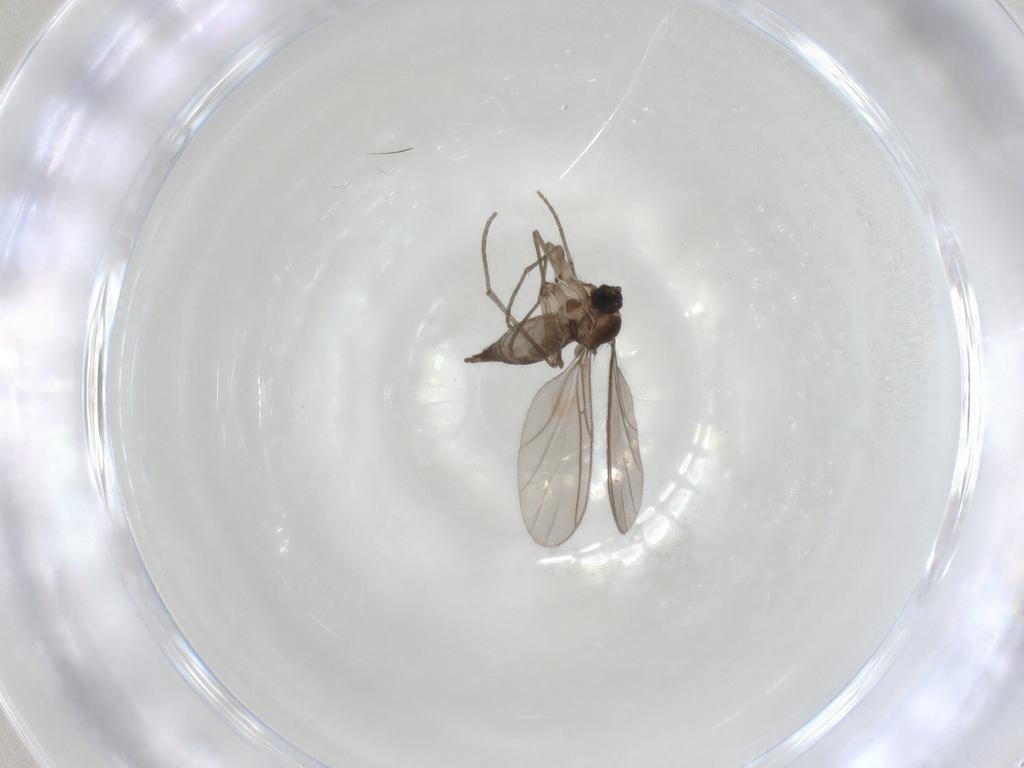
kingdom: Animalia
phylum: Arthropoda
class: Insecta
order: Diptera
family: Sciaridae
